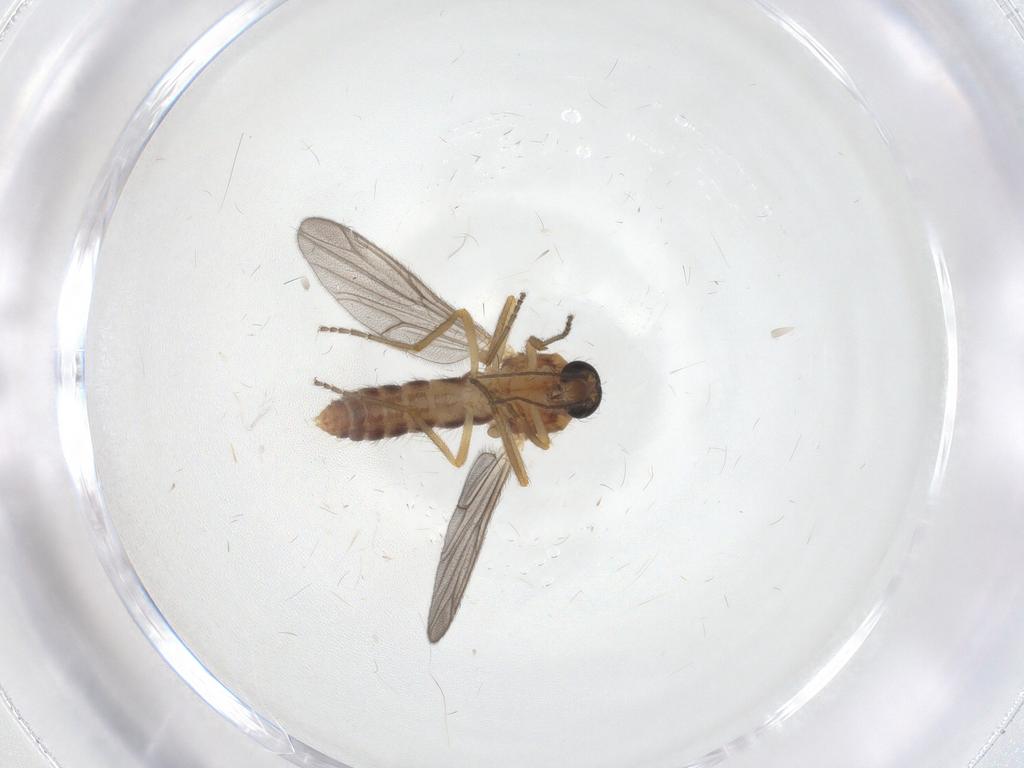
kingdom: Animalia
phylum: Arthropoda
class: Insecta
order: Diptera
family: Ceratopogonidae
